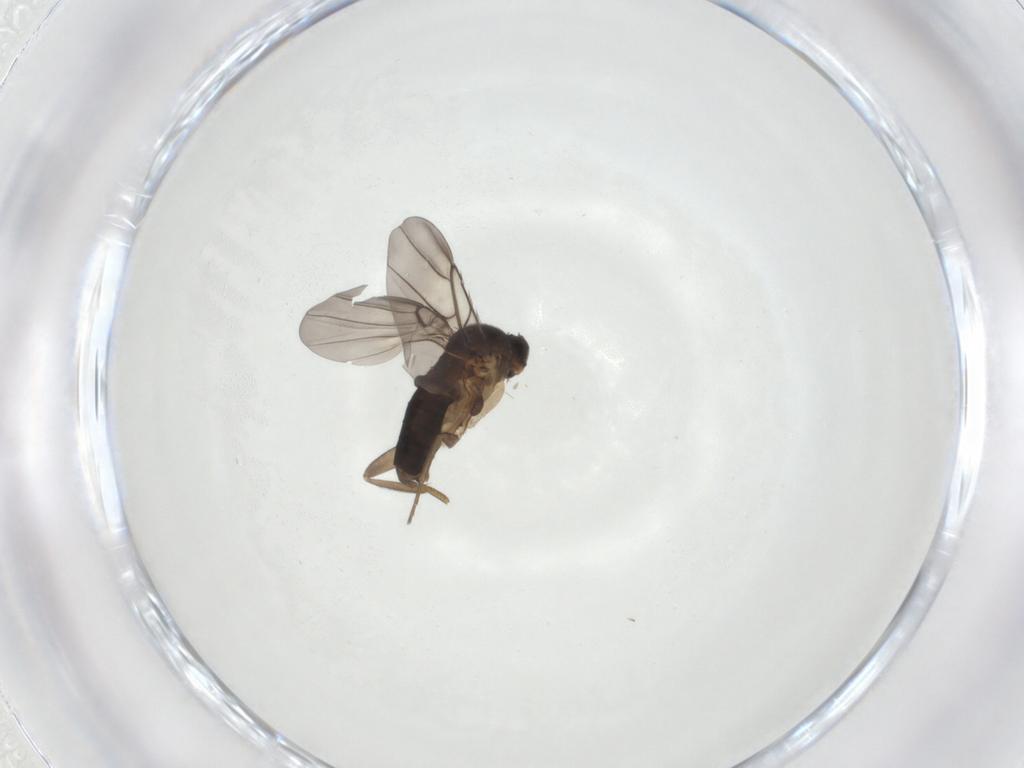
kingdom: Animalia
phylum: Arthropoda
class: Insecta
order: Diptera
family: Phoridae
